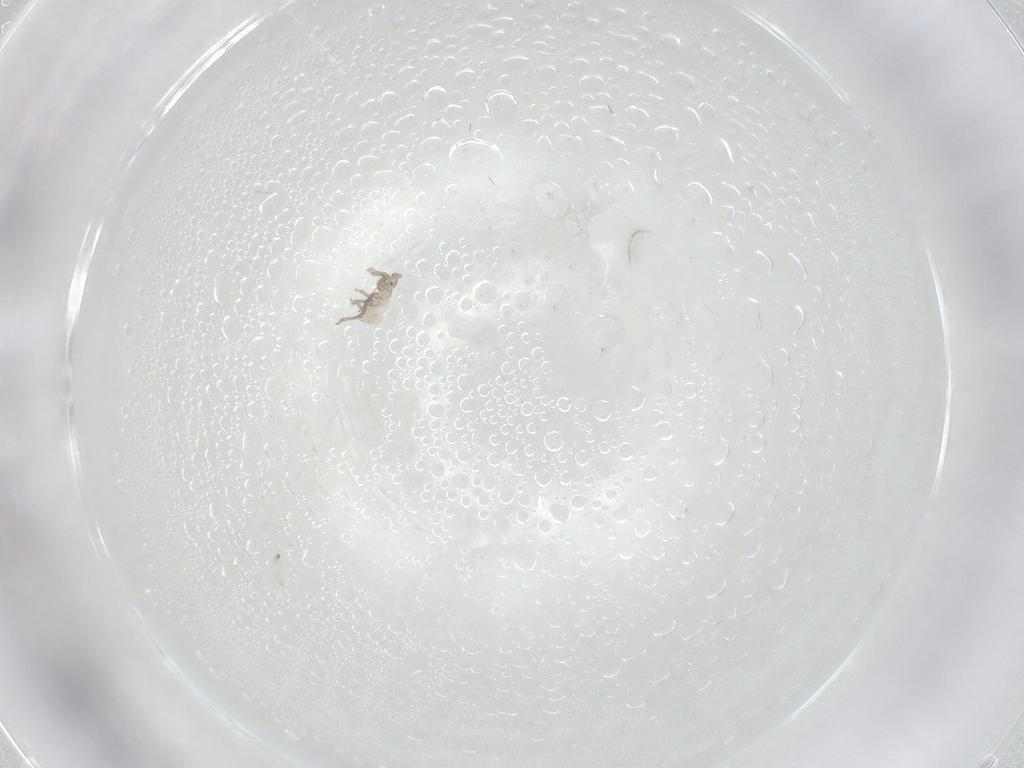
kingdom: Animalia
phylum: Arthropoda
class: Insecta
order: Hemiptera
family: Aphididae
